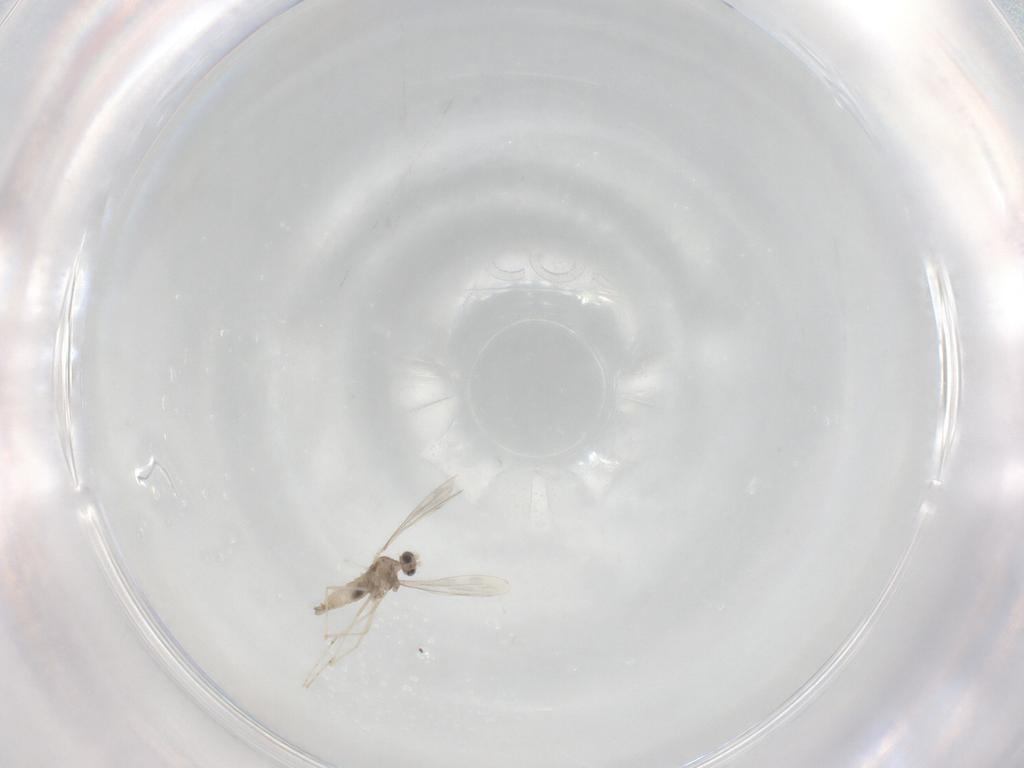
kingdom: Animalia
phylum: Arthropoda
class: Insecta
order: Diptera
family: Cecidomyiidae
